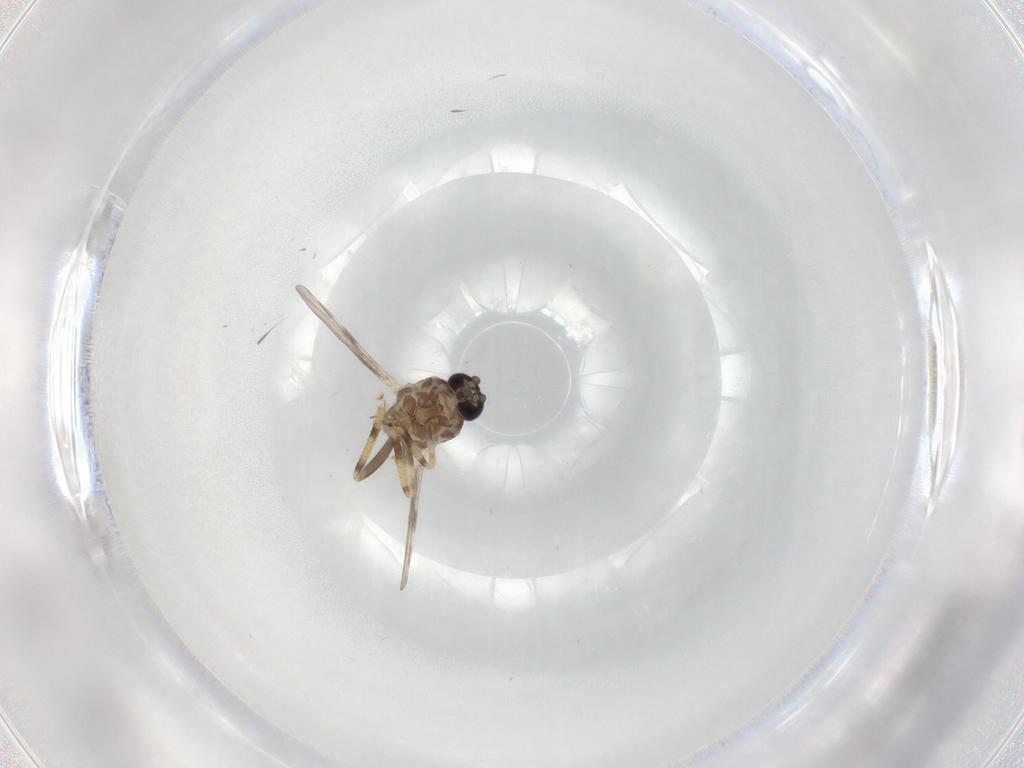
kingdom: Animalia
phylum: Arthropoda
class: Insecta
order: Diptera
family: Ceratopogonidae
